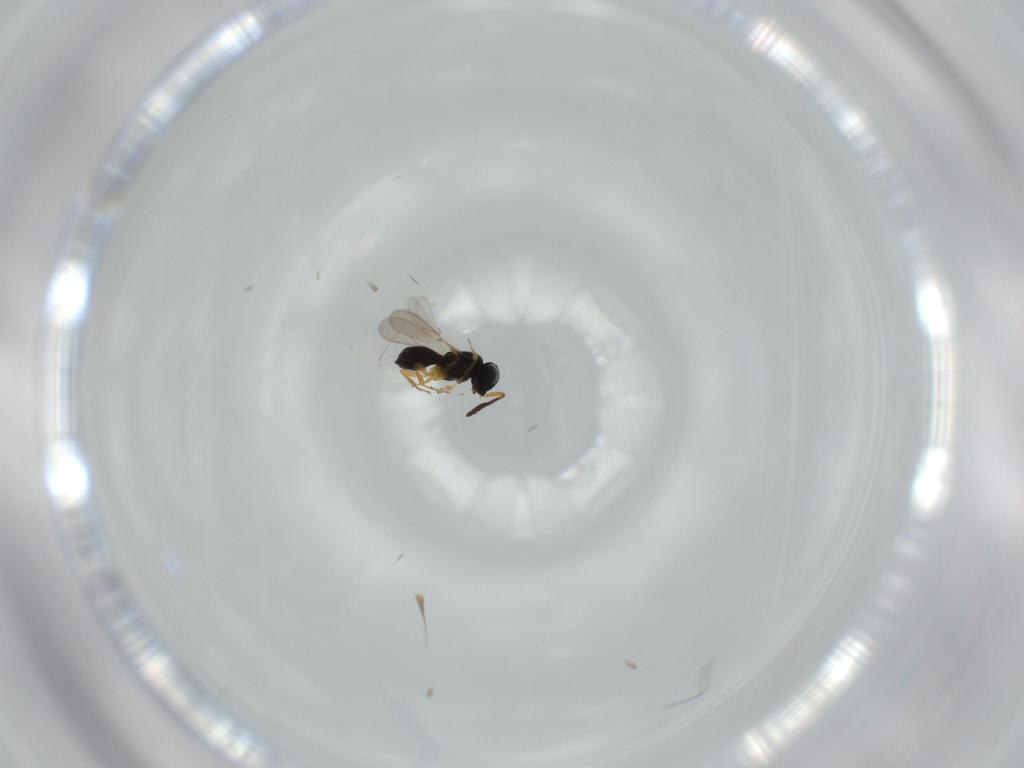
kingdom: Animalia
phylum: Arthropoda
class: Insecta
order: Hymenoptera
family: Scelionidae
